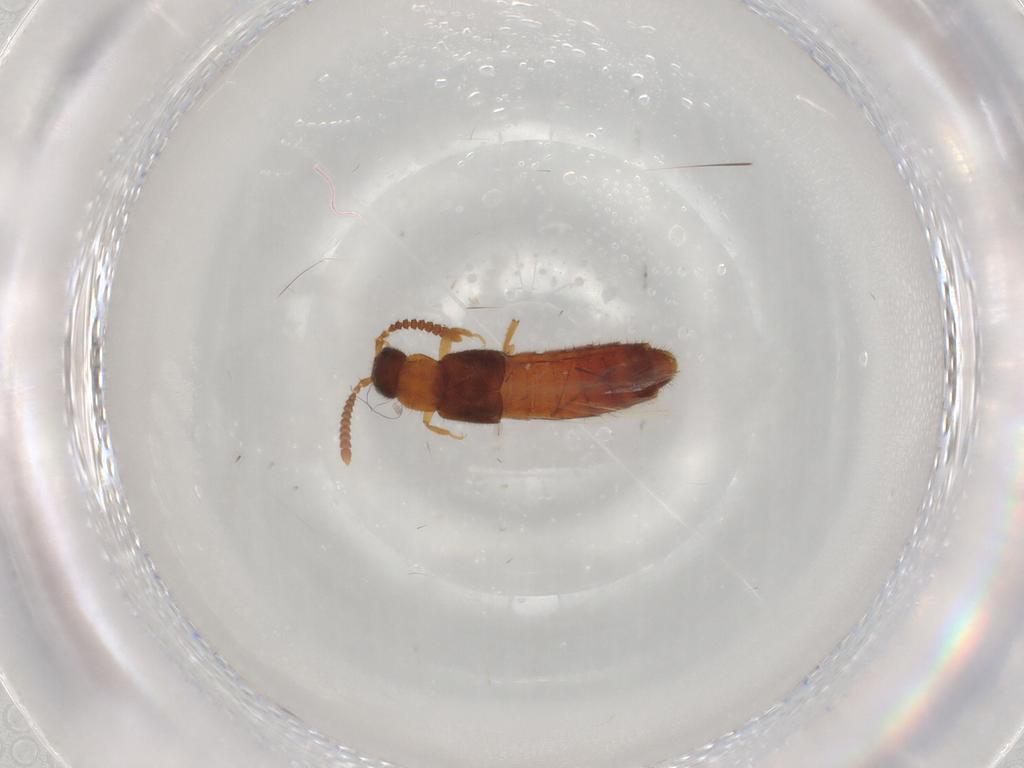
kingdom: Animalia
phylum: Arthropoda
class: Insecta
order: Coleoptera
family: Staphylinidae
